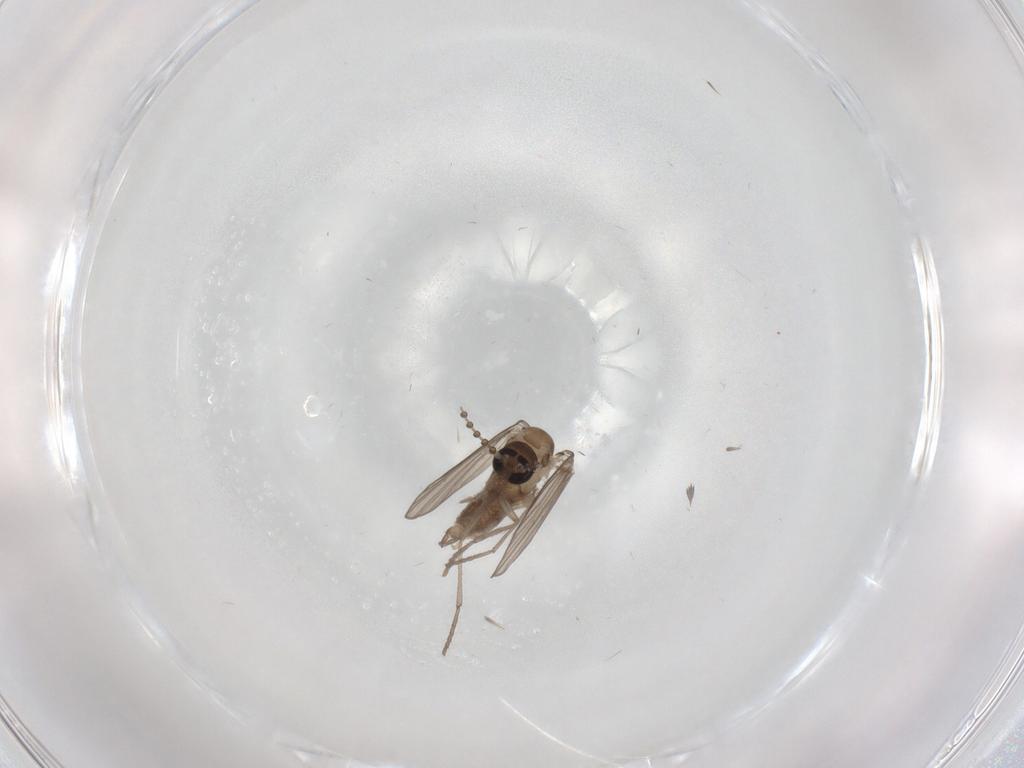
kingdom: Animalia
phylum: Arthropoda
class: Insecta
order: Diptera
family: Psychodidae
